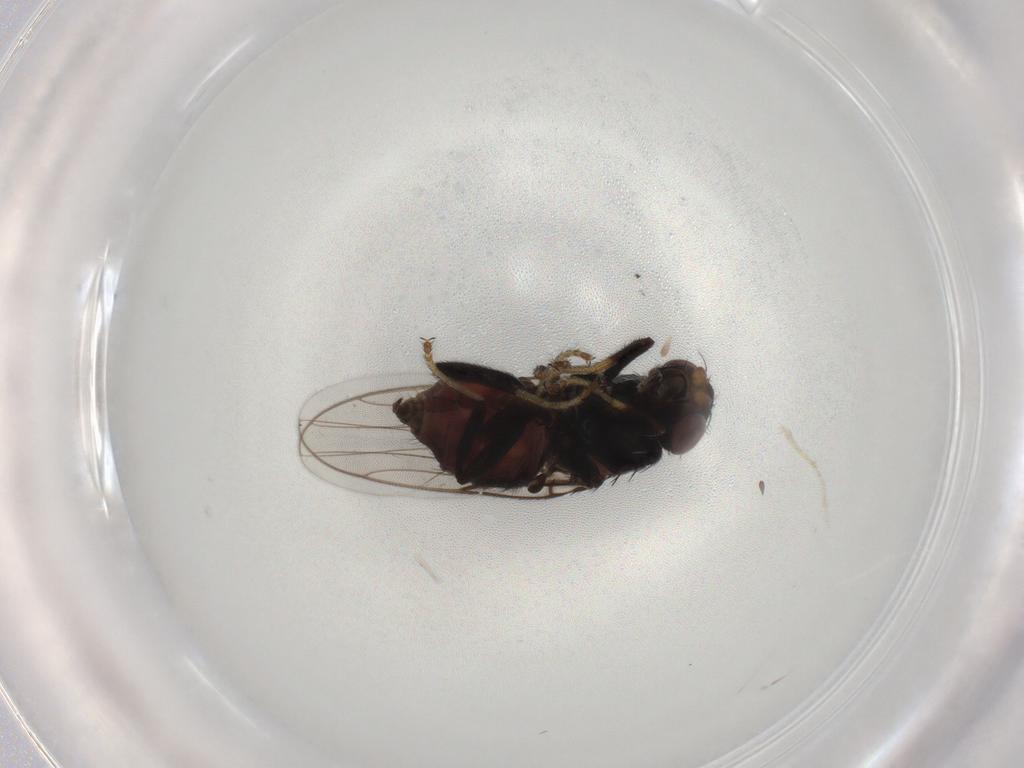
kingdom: Animalia
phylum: Arthropoda
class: Insecta
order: Diptera
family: Chloropidae
